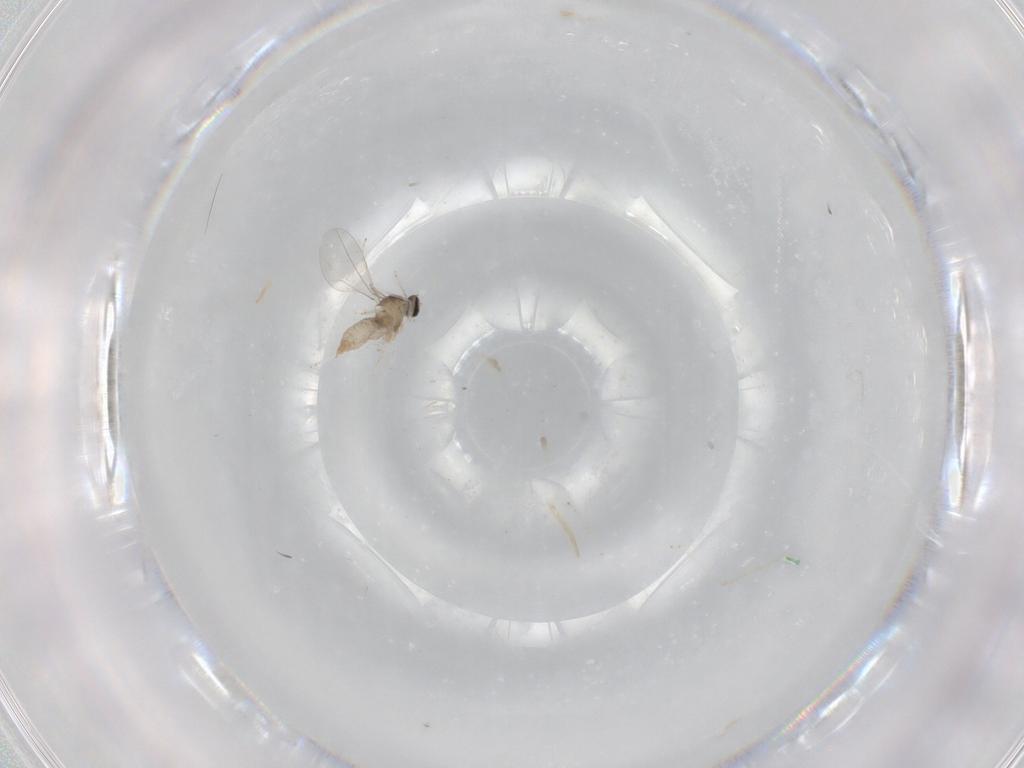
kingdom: Animalia
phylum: Arthropoda
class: Insecta
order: Diptera
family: Cecidomyiidae
